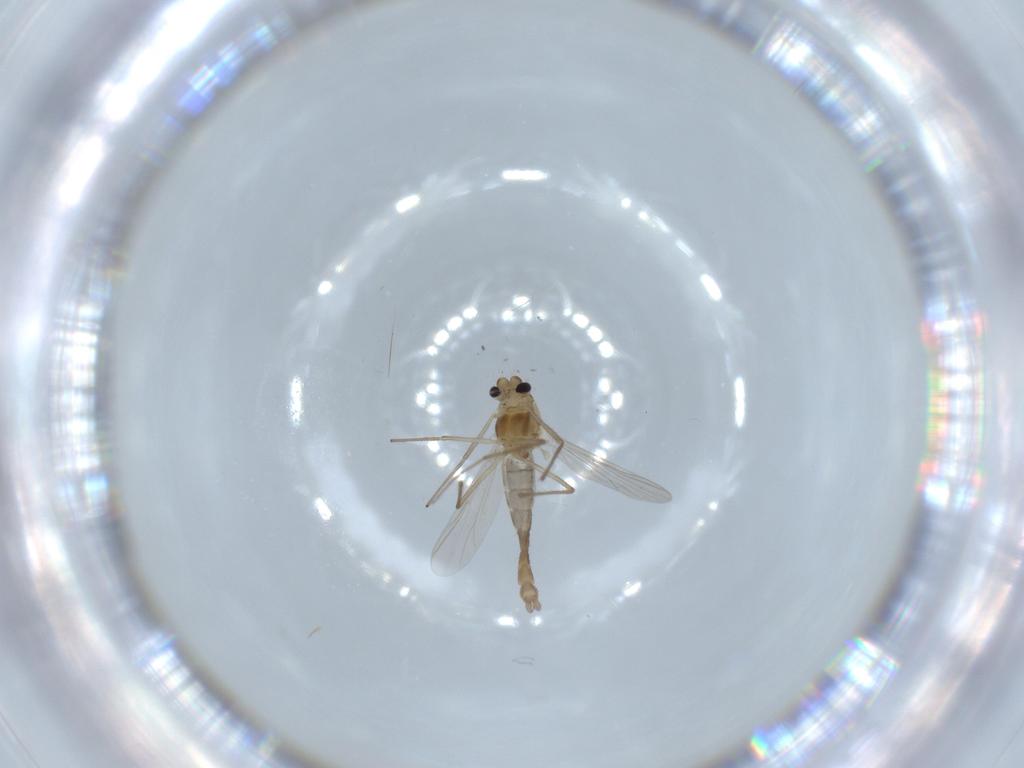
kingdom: Animalia
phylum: Arthropoda
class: Insecta
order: Diptera
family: Chironomidae
